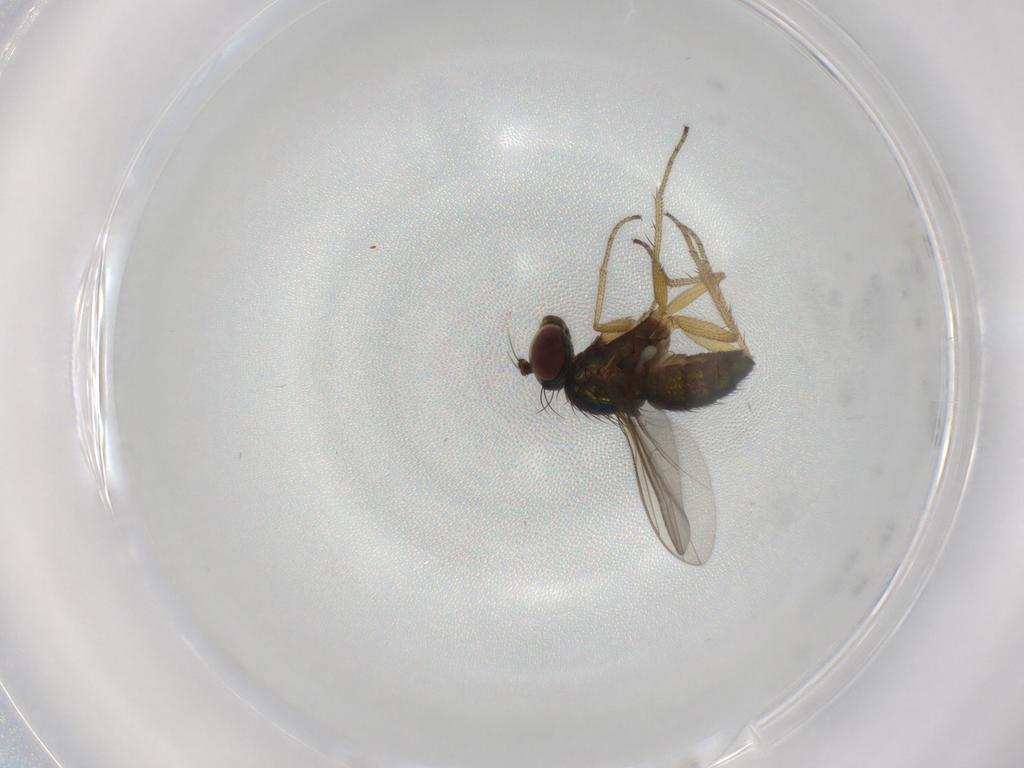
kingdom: Animalia
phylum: Arthropoda
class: Insecta
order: Diptera
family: Dolichopodidae
